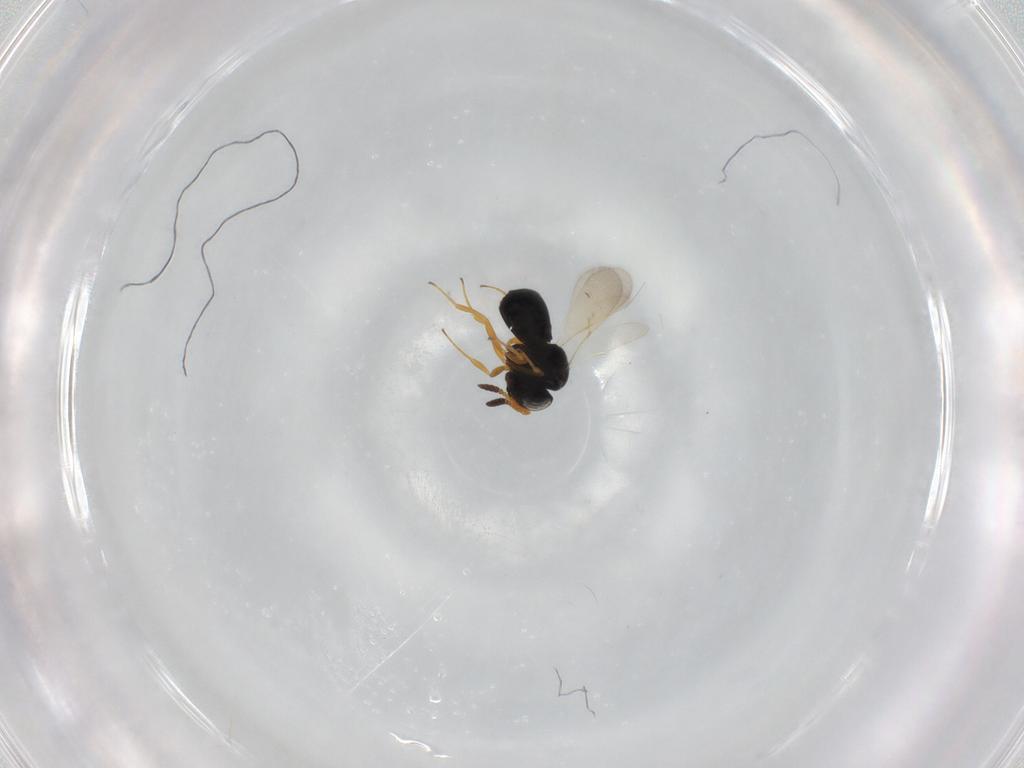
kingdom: Animalia
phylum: Arthropoda
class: Insecta
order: Hymenoptera
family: Scelionidae
